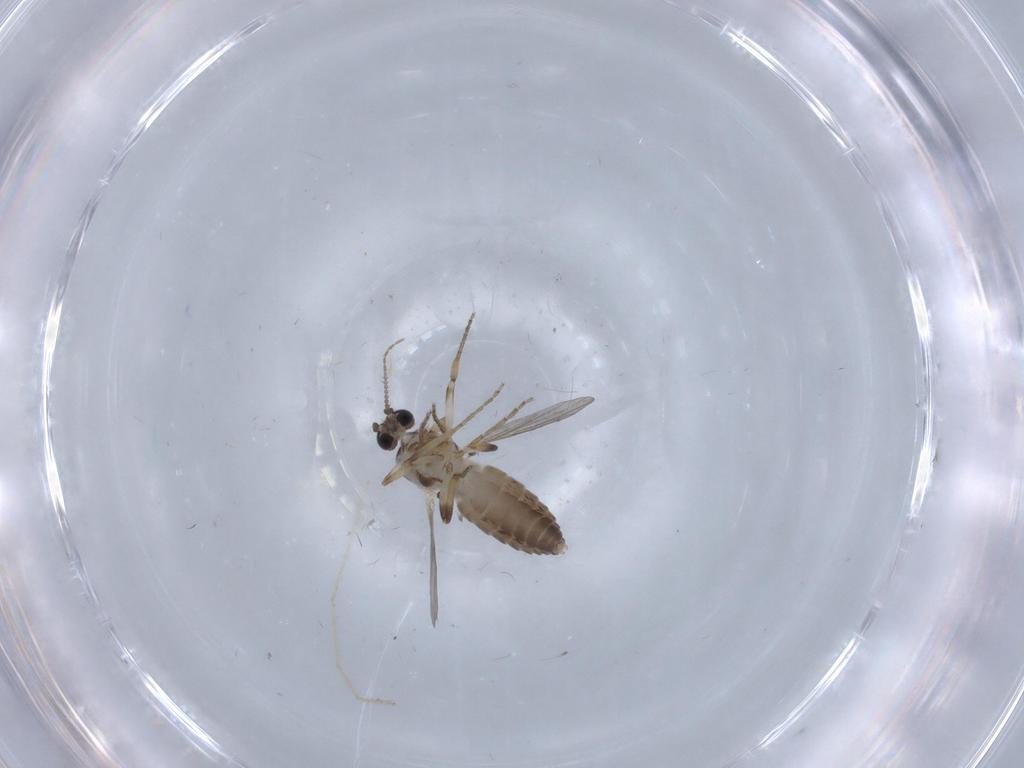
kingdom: Animalia
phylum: Arthropoda
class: Insecta
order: Diptera
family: Ceratopogonidae
